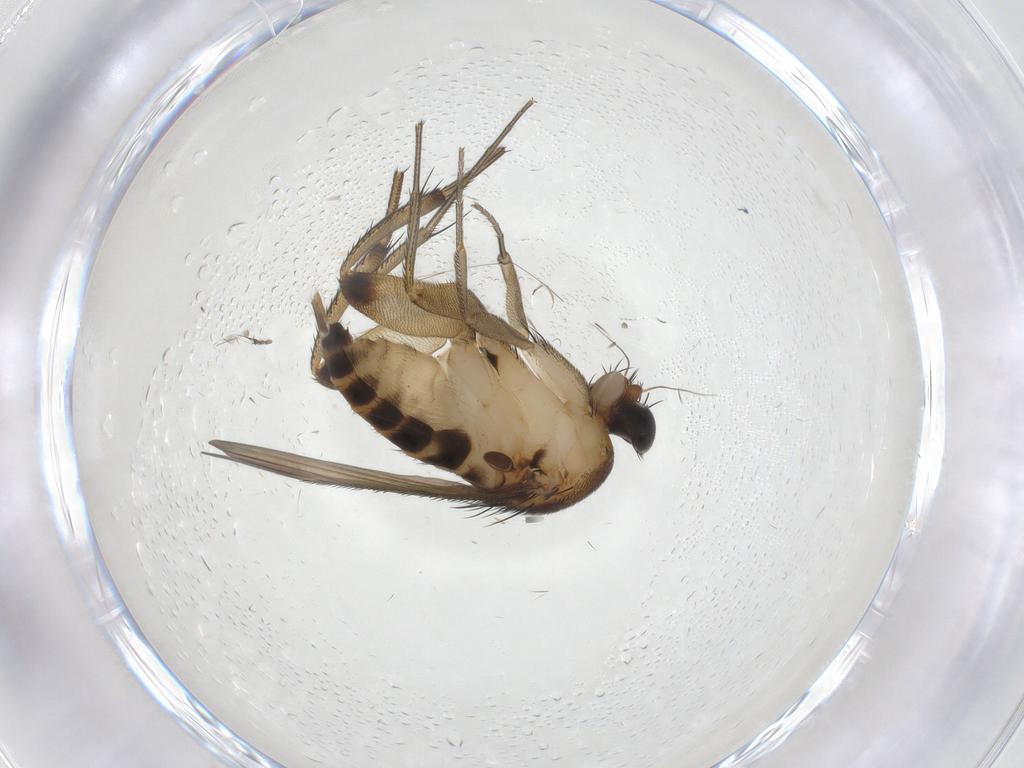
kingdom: Animalia
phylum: Arthropoda
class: Insecta
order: Diptera
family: Phoridae
